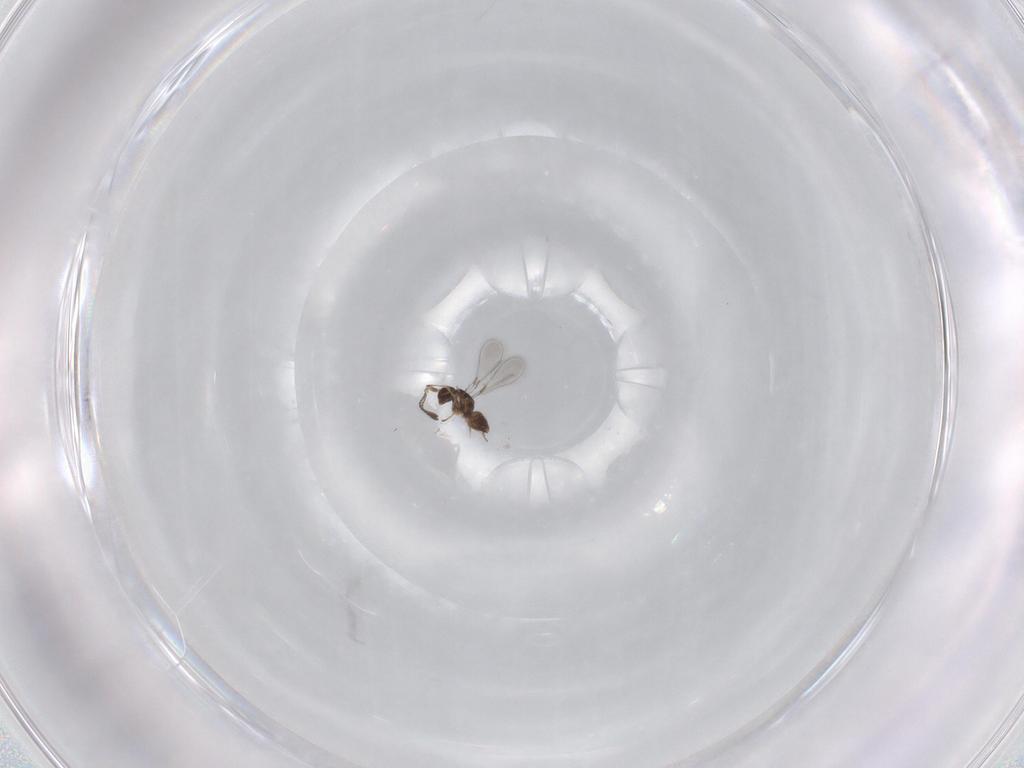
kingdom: Animalia
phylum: Arthropoda
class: Insecta
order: Hymenoptera
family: Mymaridae
